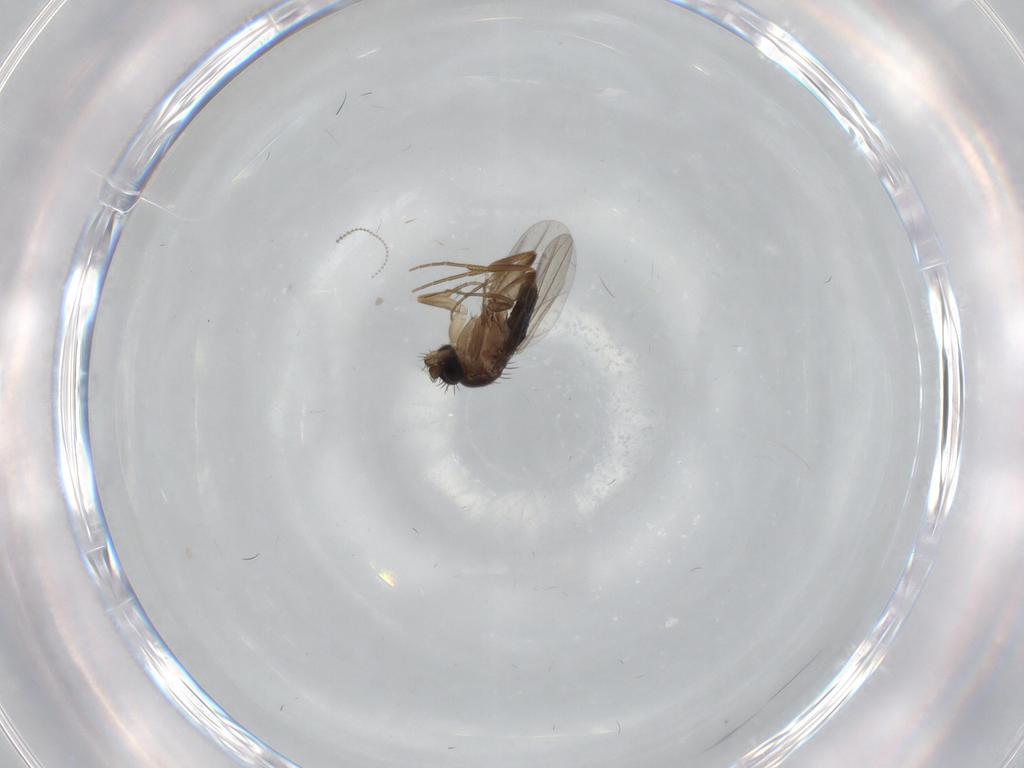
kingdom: Animalia
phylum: Arthropoda
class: Insecta
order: Diptera
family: Phoridae
